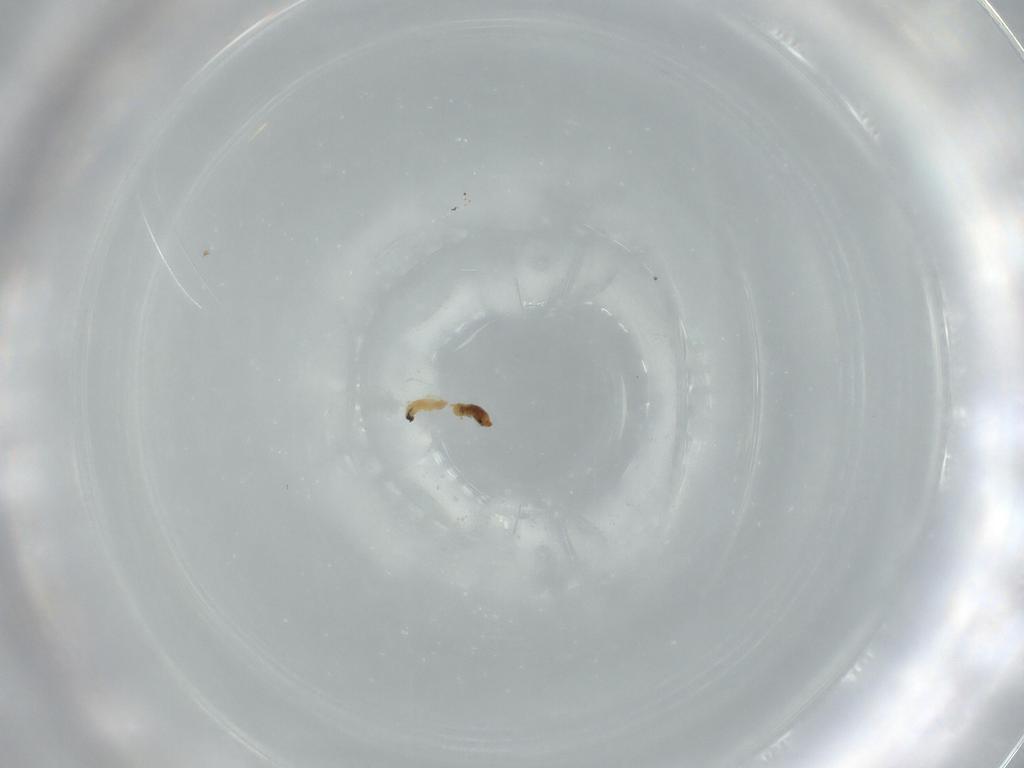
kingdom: Animalia
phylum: Arthropoda
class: Insecta
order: Lepidoptera
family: Blastobasidae
